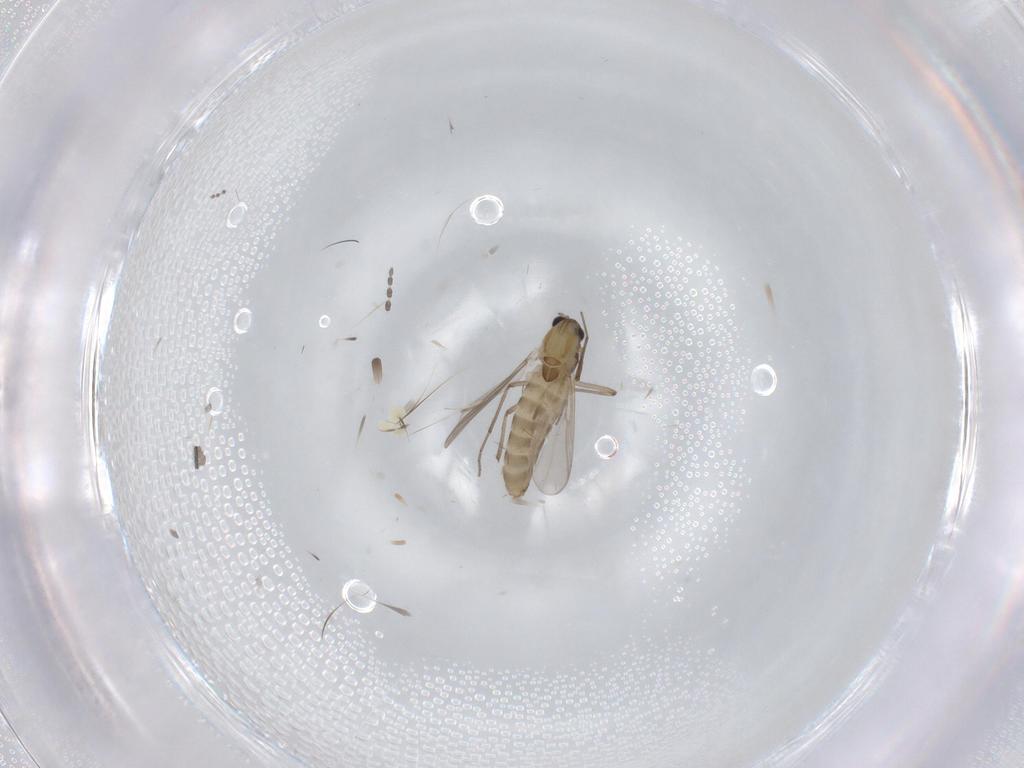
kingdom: Animalia
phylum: Arthropoda
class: Insecta
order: Diptera
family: Chironomidae
